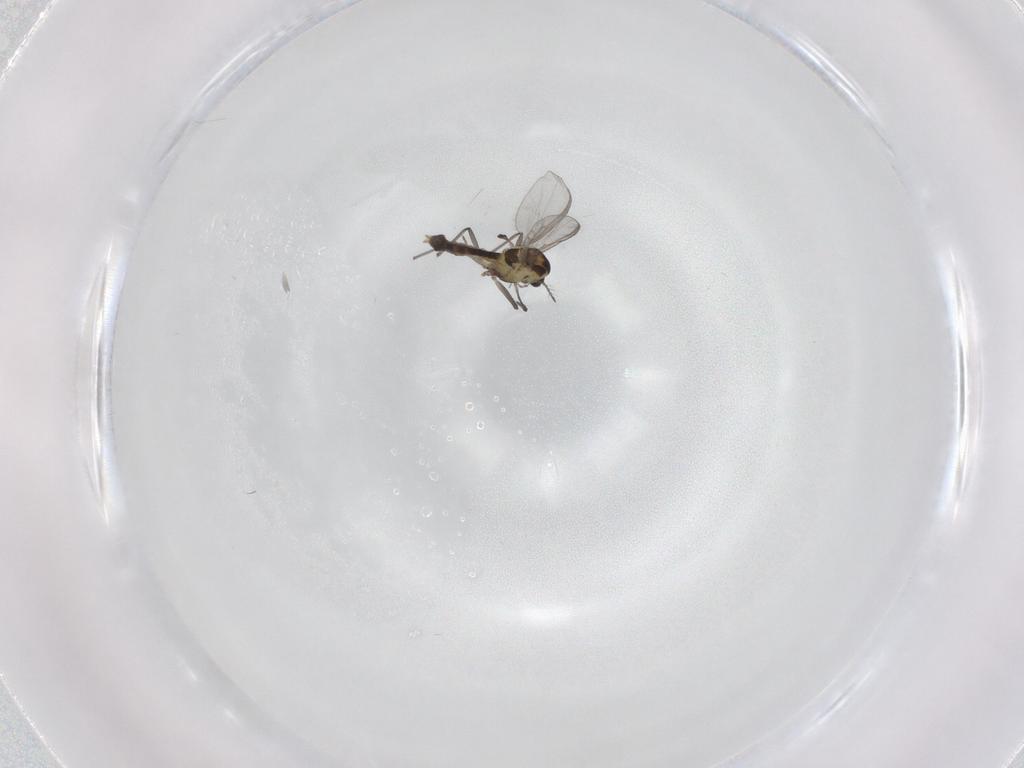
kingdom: Animalia
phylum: Arthropoda
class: Insecta
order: Diptera
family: Chironomidae
